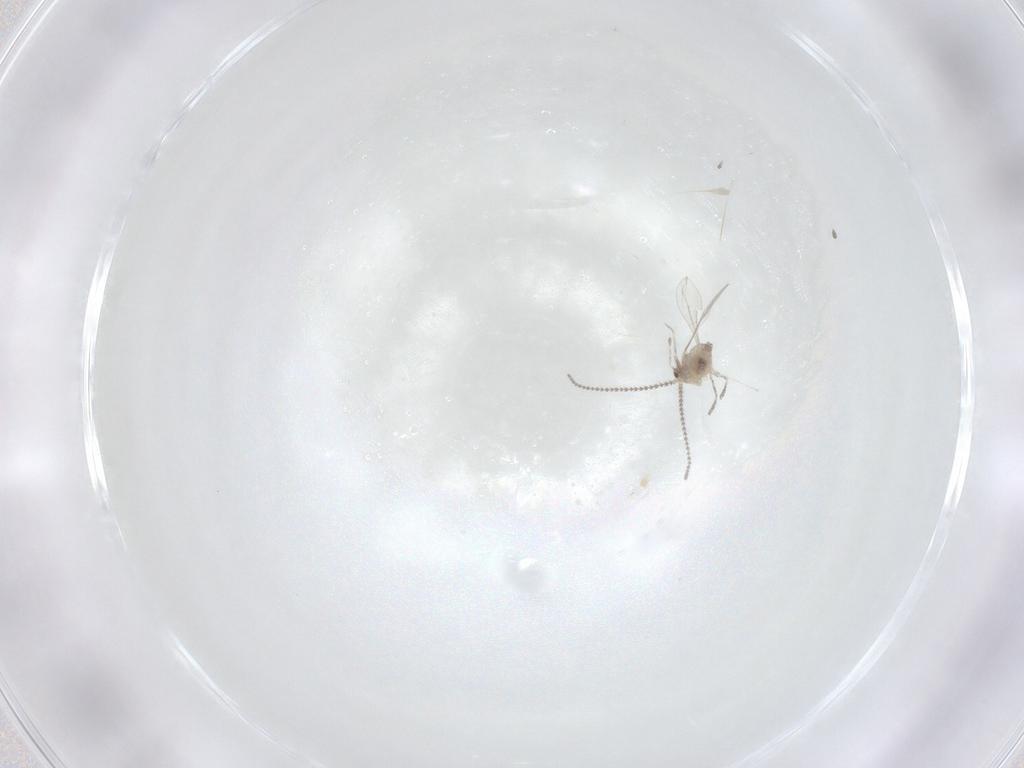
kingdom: Animalia
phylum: Arthropoda
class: Insecta
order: Diptera
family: Cecidomyiidae
